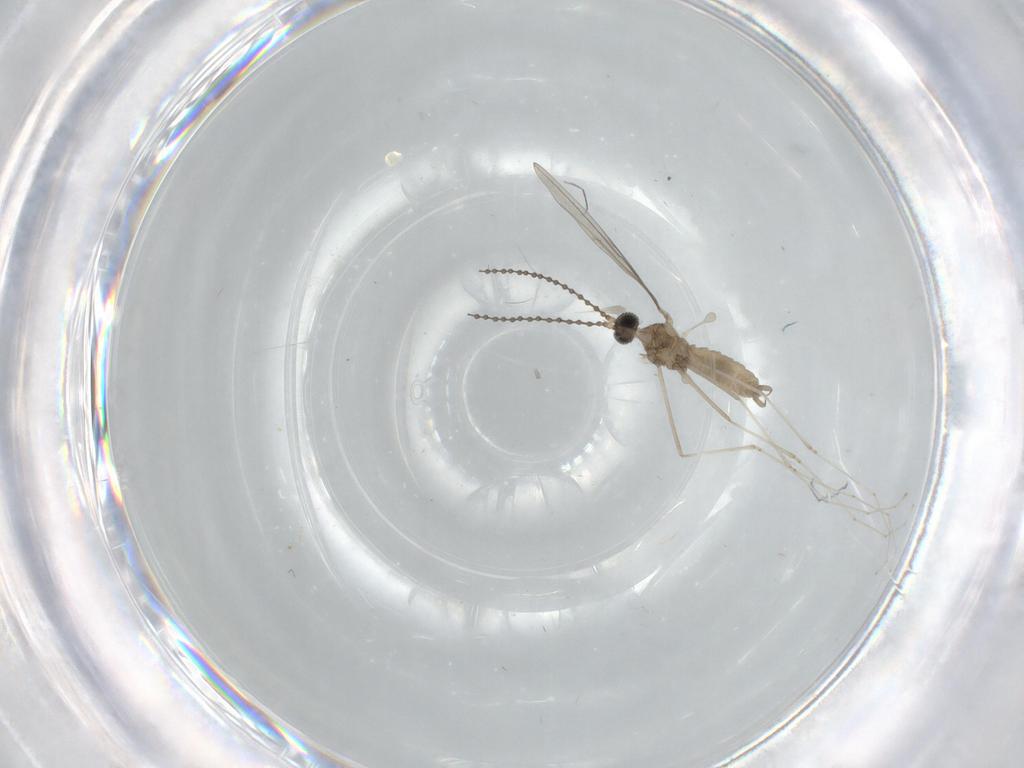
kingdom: Animalia
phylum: Arthropoda
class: Insecta
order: Diptera
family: Cecidomyiidae
